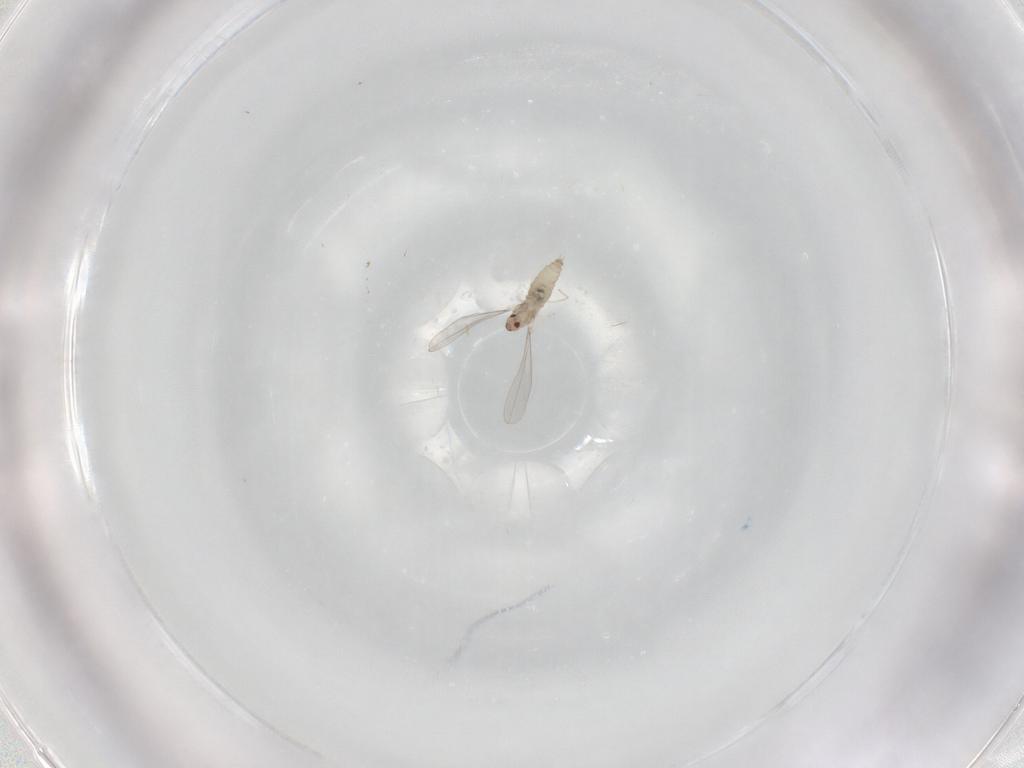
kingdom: Animalia
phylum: Arthropoda
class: Insecta
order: Diptera
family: Cecidomyiidae
